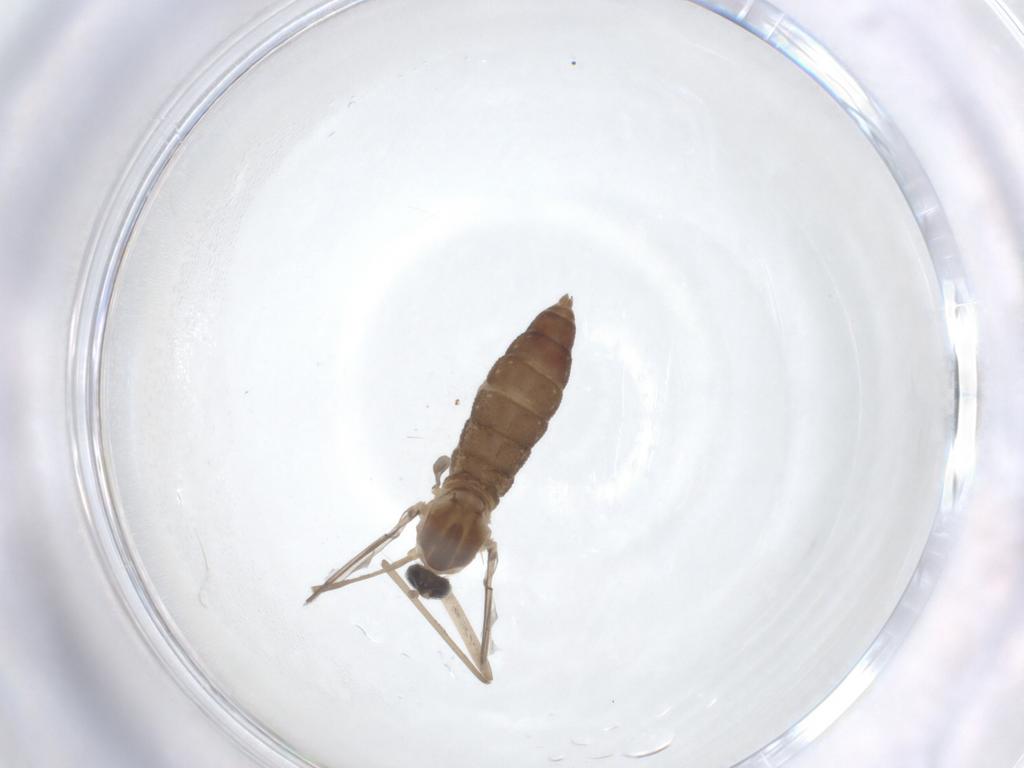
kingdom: Animalia
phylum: Arthropoda
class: Insecta
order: Diptera
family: Cecidomyiidae
